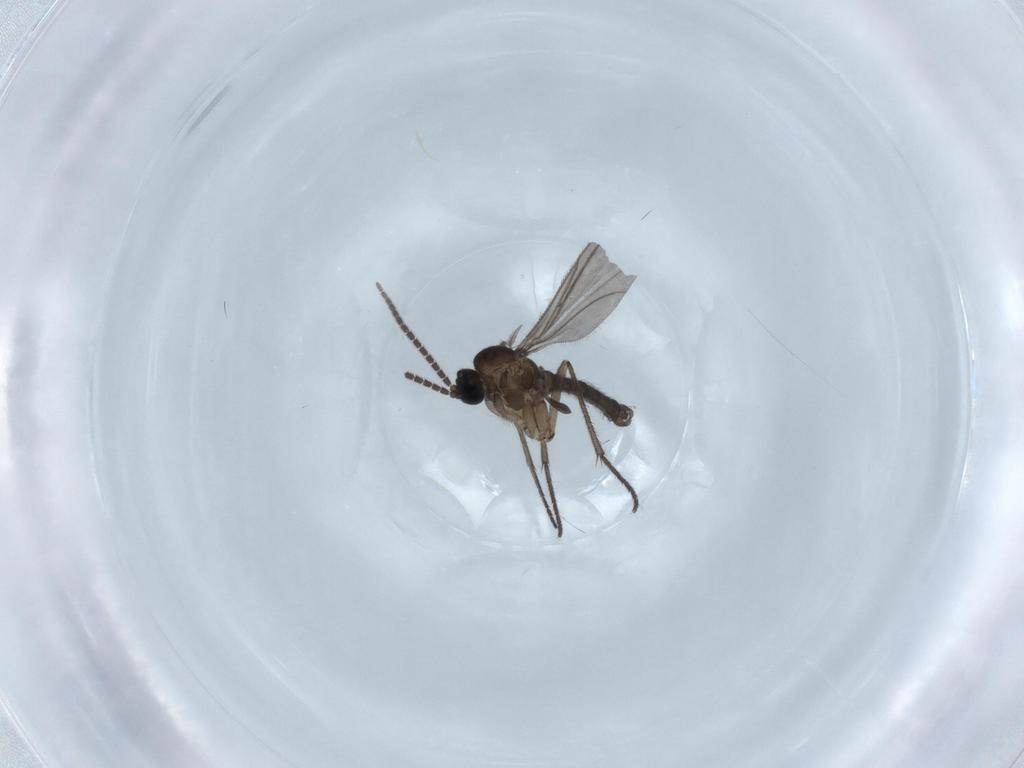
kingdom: Animalia
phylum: Arthropoda
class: Insecta
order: Diptera
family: Sciaridae
